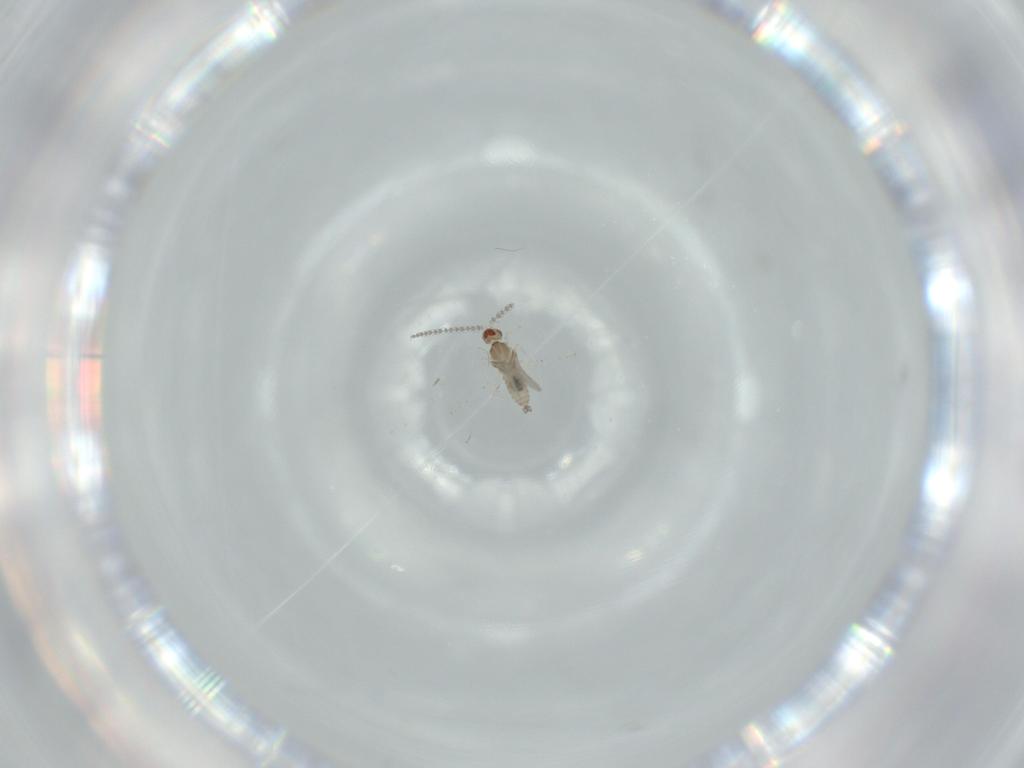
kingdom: Animalia
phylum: Arthropoda
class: Insecta
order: Diptera
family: Cecidomyiidae
